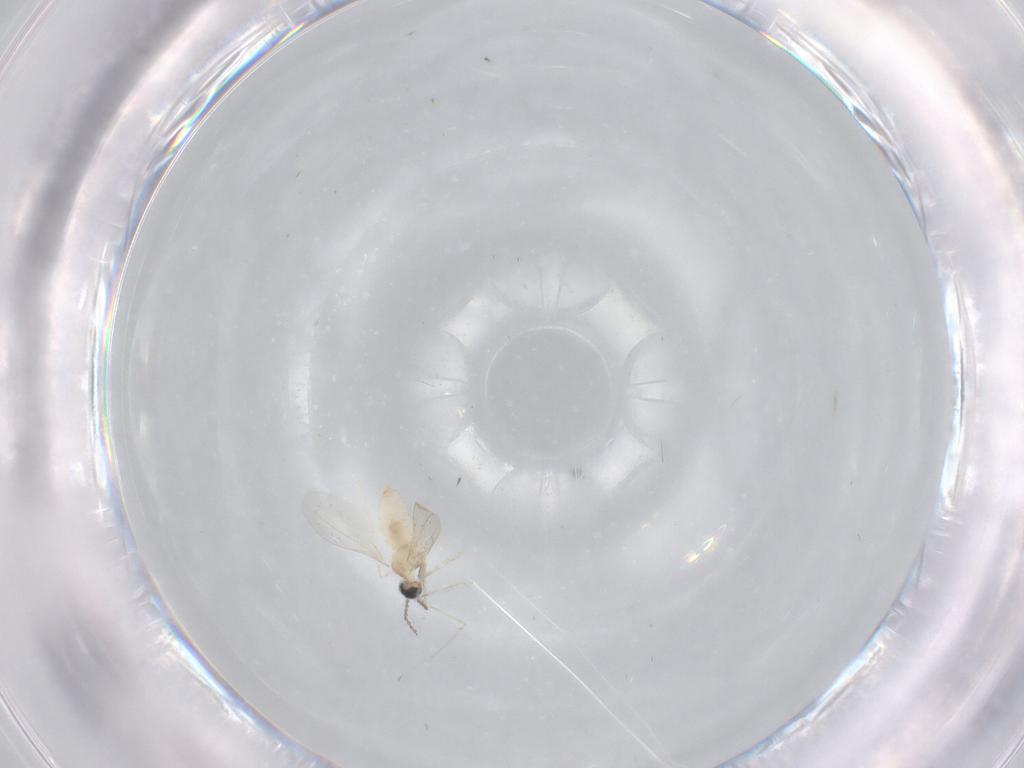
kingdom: Animalia
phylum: Arthropoda
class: Insecta
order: Diptera
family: Cecidomyiidae
